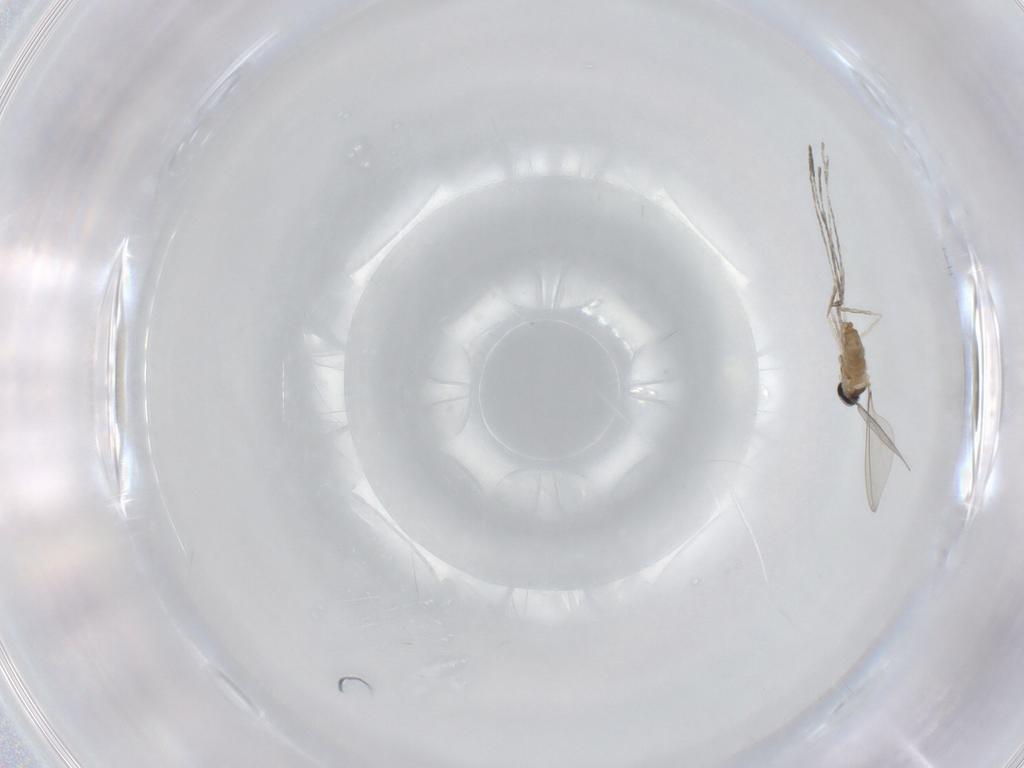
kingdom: Animalia
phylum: Arthropoda
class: Insecta
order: Diptera
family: Cecidomyiidae
